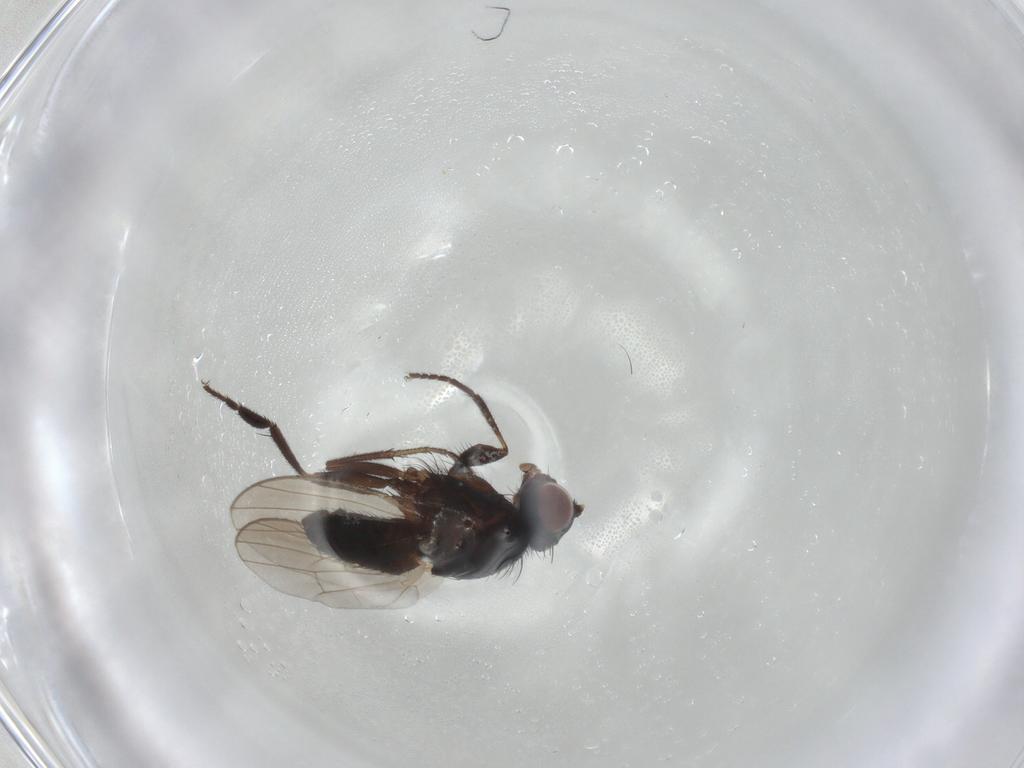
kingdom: Animalia
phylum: Arthropoda
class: Insecta
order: Diptera
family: Heleomyzidae
